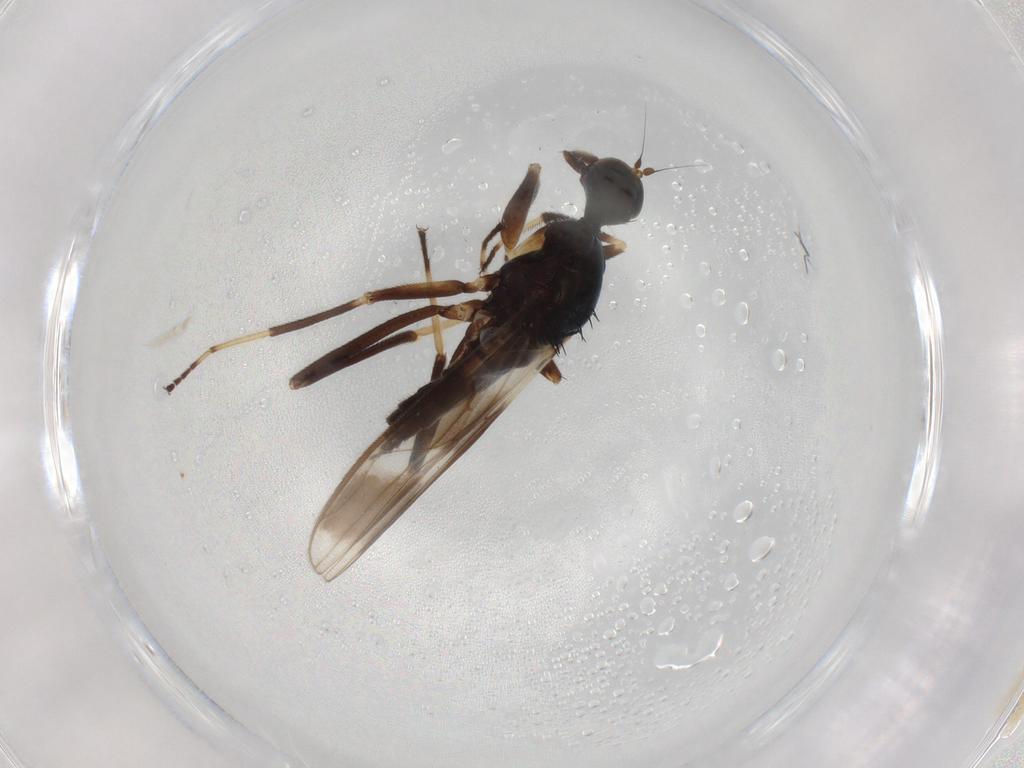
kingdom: Animalia
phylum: Arthropoda
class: Insecta
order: Diptera
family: Hybotidae
